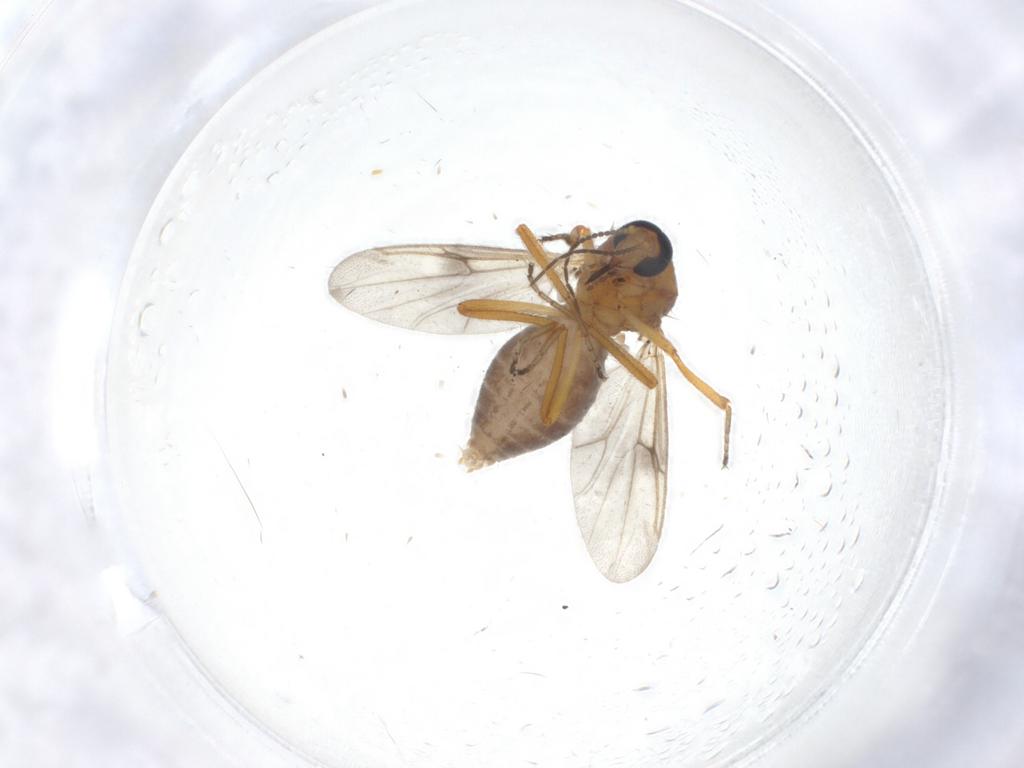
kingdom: Animalia
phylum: Arthropoda
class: Insecta
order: Diptera
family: Ceratopogonidae
